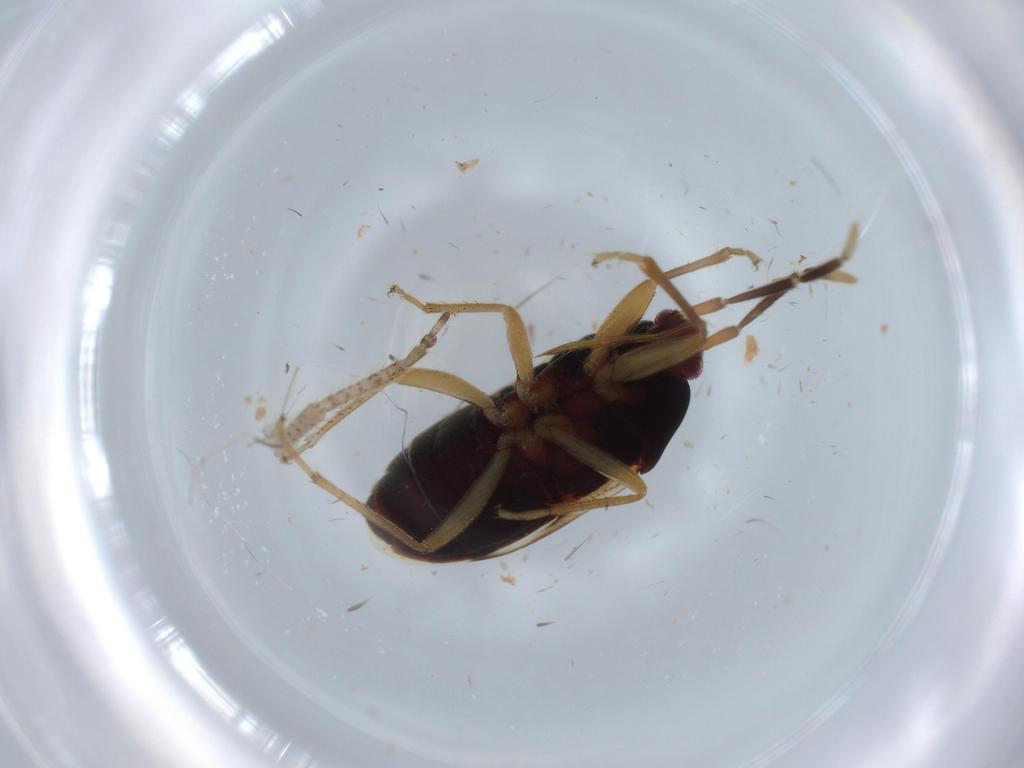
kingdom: Animalia
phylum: Arthropoda
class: Insecta
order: Hemiptera
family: Rhyparochromidae
